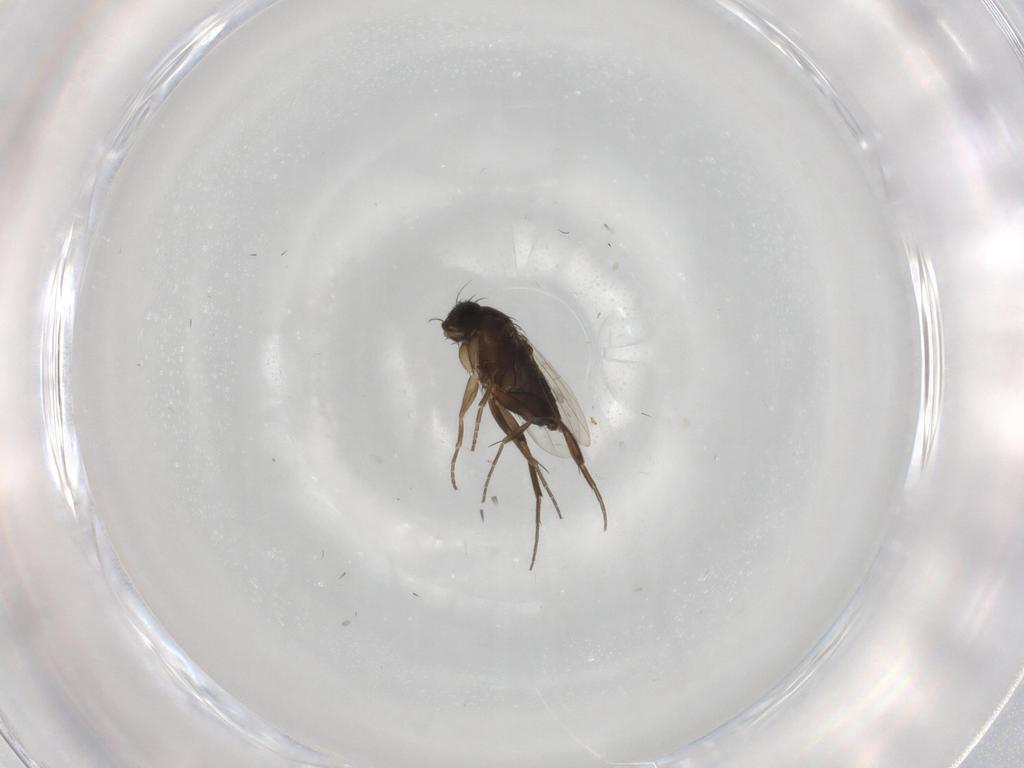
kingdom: Animalia
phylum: Arthropoda
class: Insecta
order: Diptera
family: Phoridae
